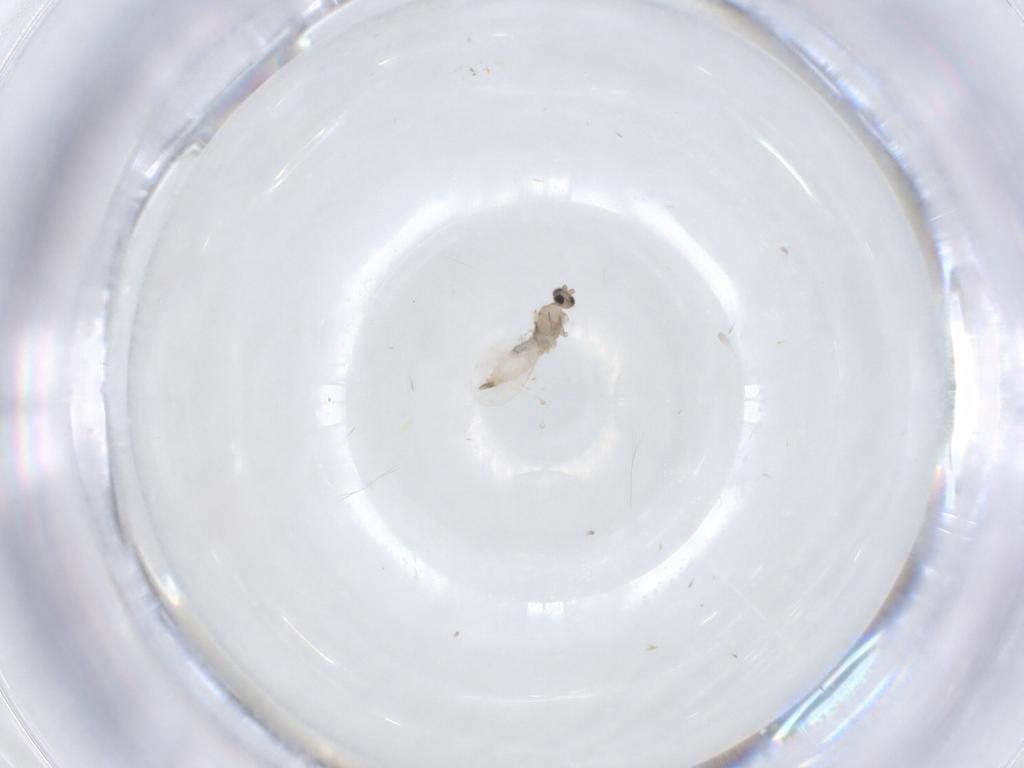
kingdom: Animalia
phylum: Arthropoda
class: Insecta
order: Diptera
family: Cecidomyiidae
